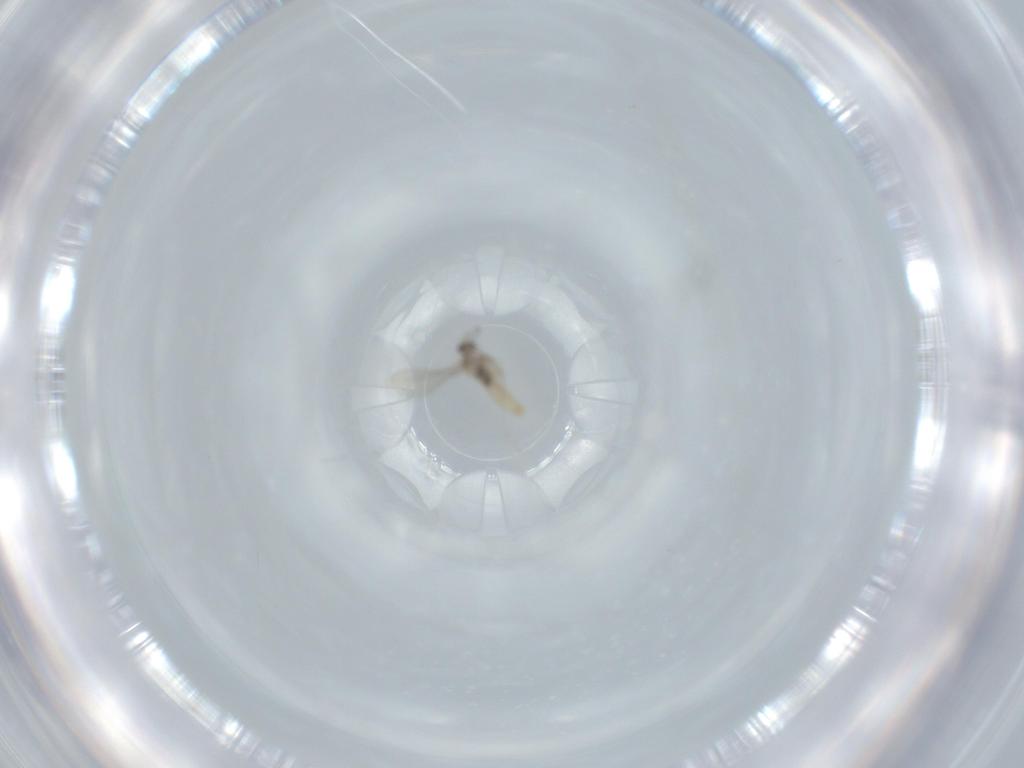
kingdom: Animalia
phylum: Arthropoda
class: Insecta
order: Diptera
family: Cecidomyiidae
